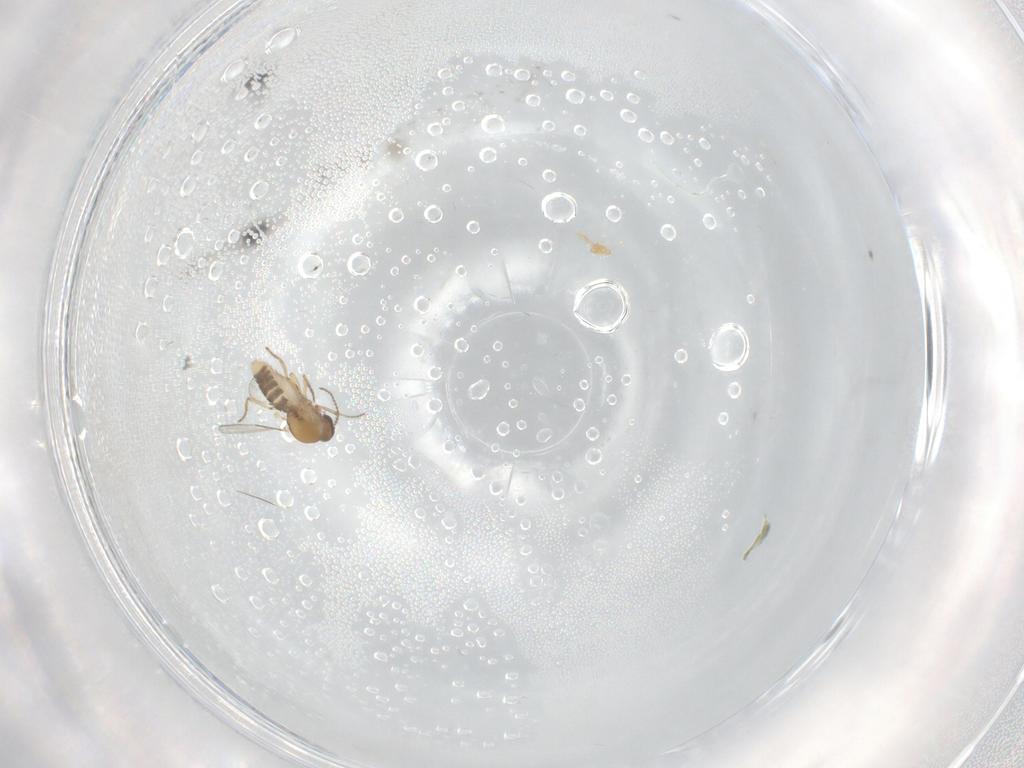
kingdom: Animalia
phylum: Arthropoda
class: Insecta
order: Diptera
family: Ceratopogonidae
